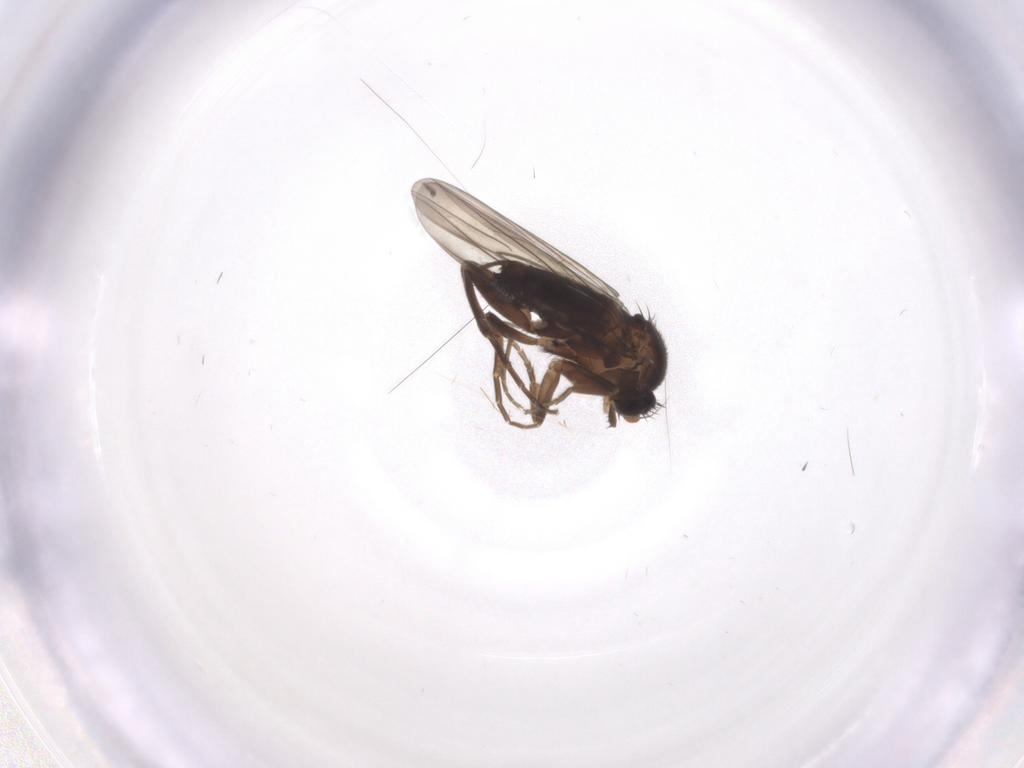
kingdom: Animalia
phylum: Arthropoda
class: Insecta
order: Diptera
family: Ceratopogonidae
